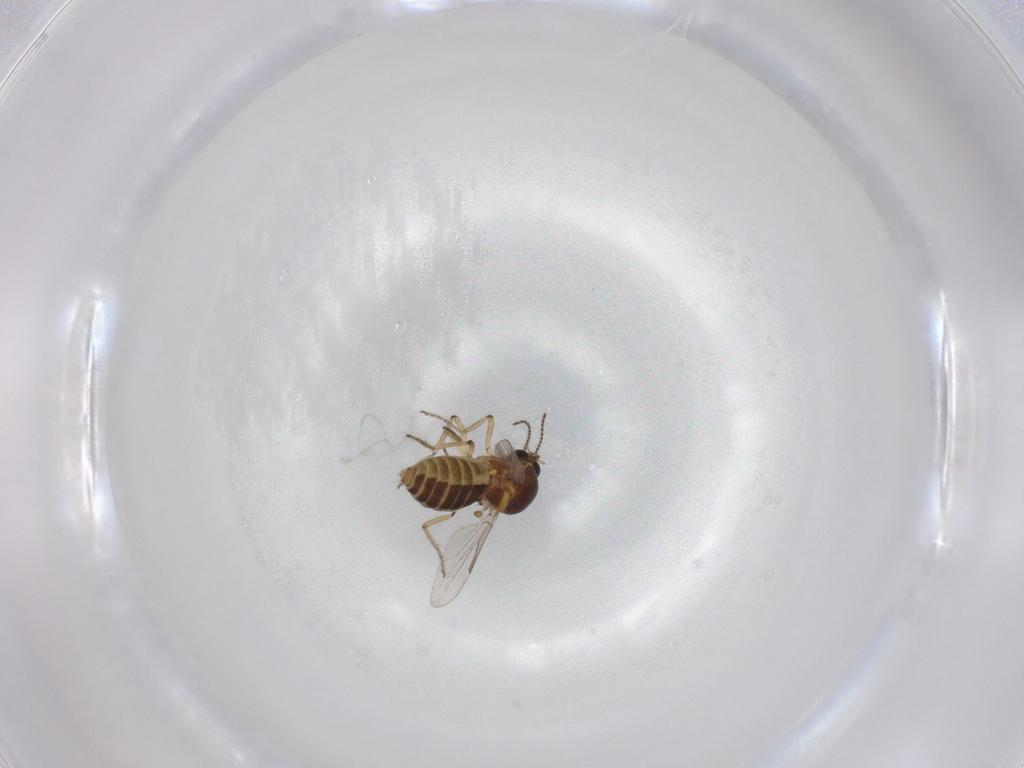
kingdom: Animalia
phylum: Arthropoda
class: Insecta
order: Diptera
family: Ceratopogonidae
